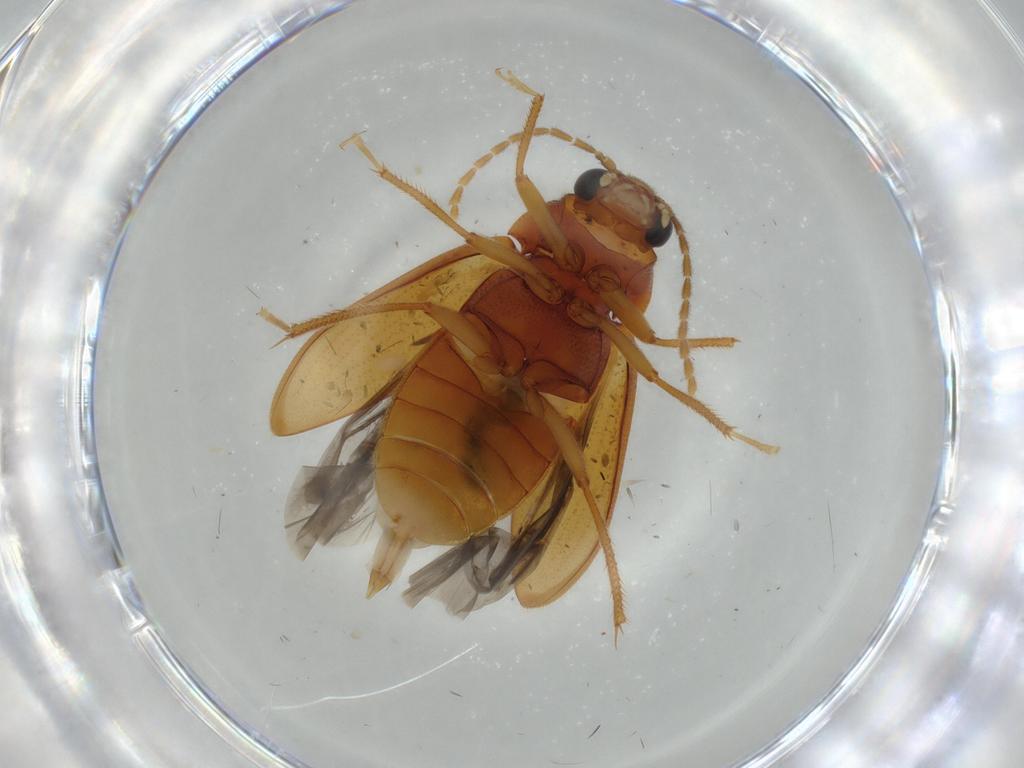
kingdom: Animalia
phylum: Arthropoda
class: Insecta
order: Coleoptera
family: Ptilodactylidae
